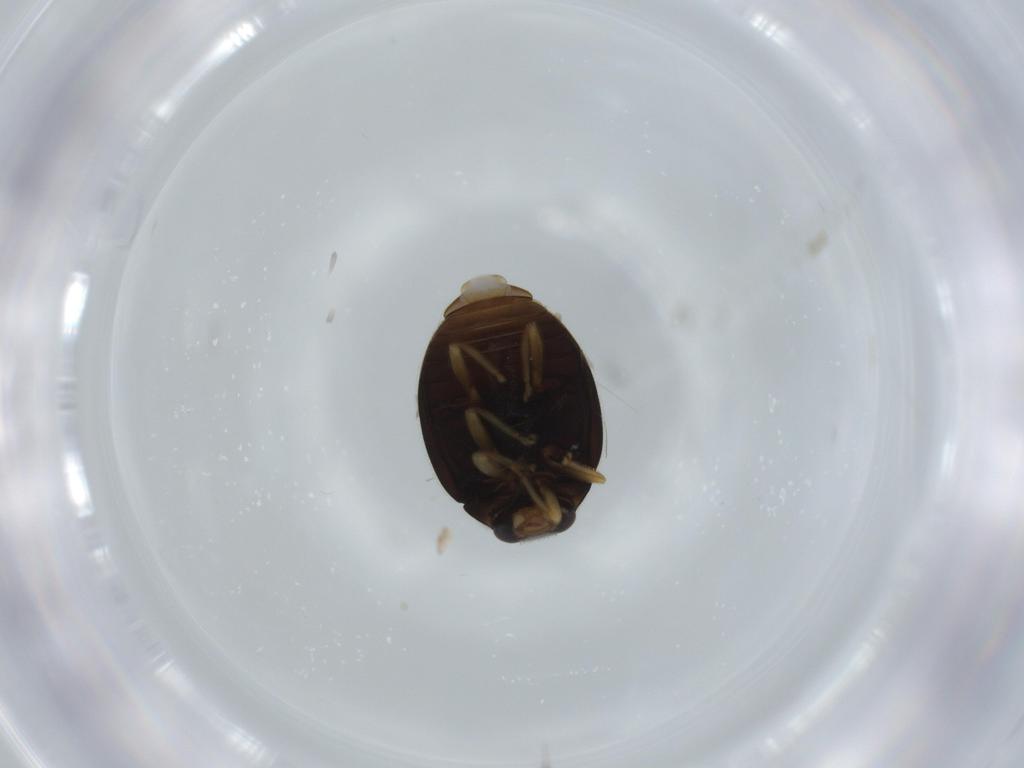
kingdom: Animalia
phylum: Arthropoda
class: Insecta
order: Coleoptera
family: Coccinellidae
